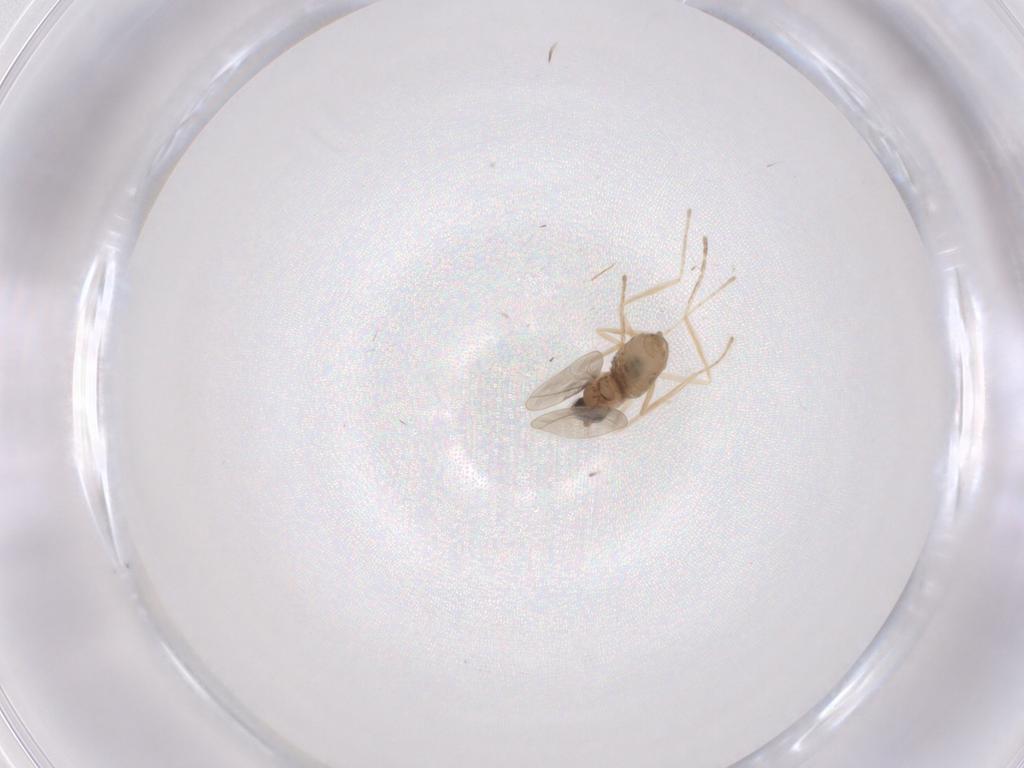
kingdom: Animalia
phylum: Arthropoda
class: Insecta
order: Diptera
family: Cecidomyiidae
